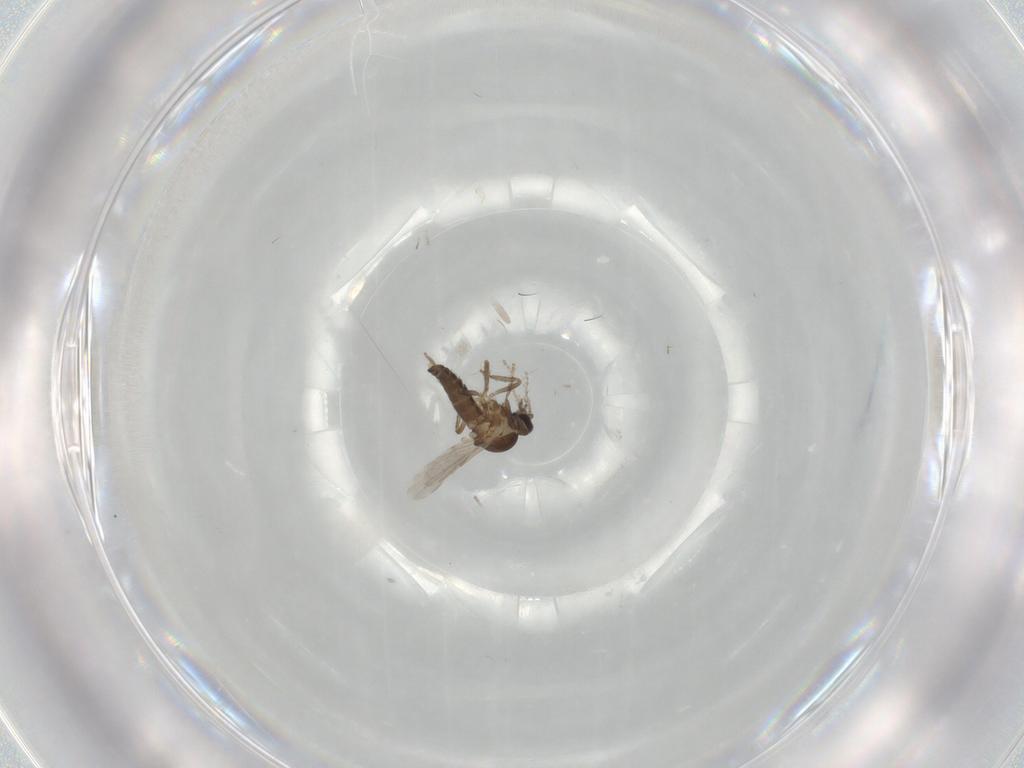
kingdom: Animalia
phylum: Arthropoda
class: Insecta
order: Diptera
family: Ceratopogonidae
